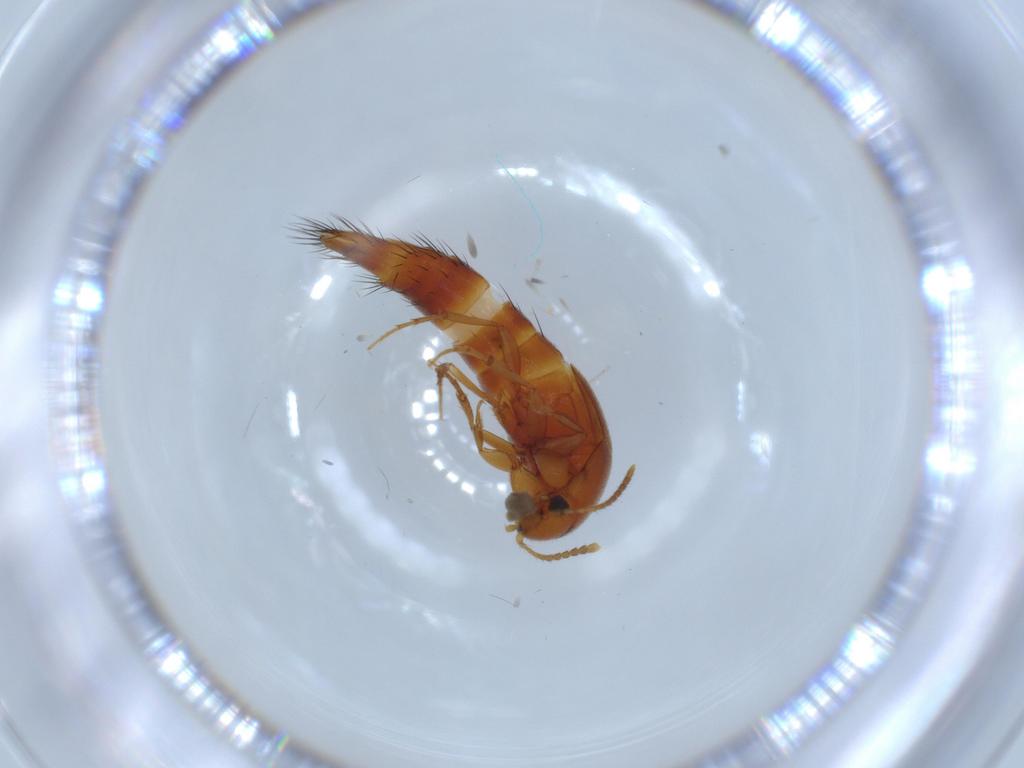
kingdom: Animalia
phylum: Arthropoda
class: Insecta
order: Coleoptera
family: Staphylinidae
